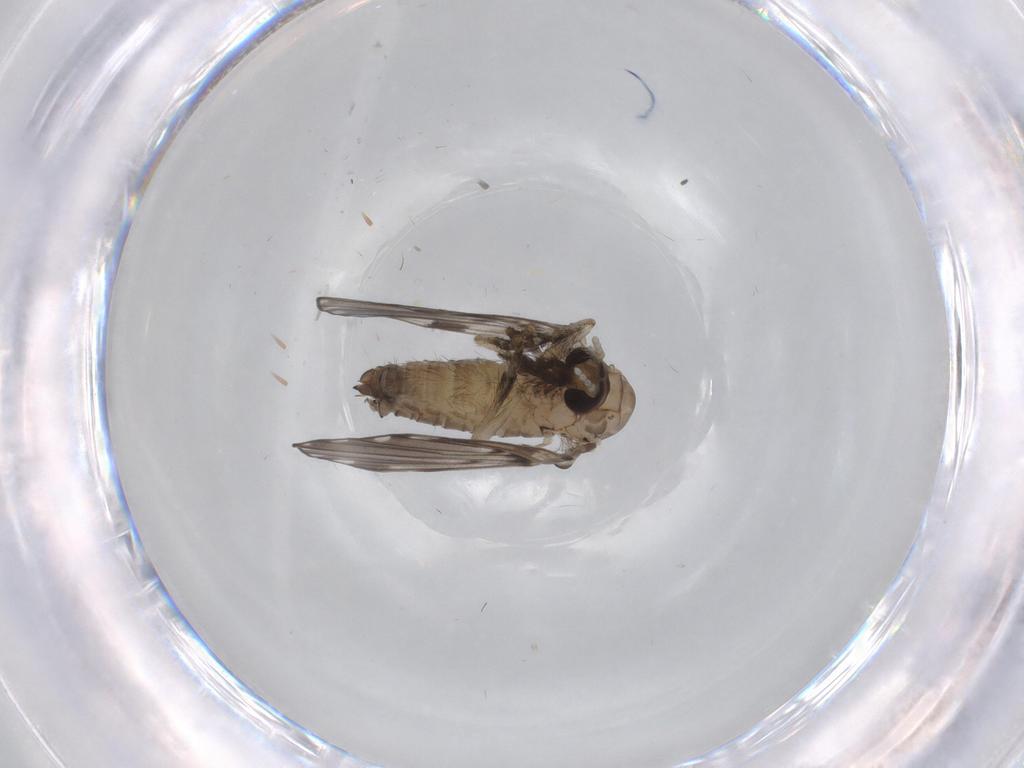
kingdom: Animalia
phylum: Arthropoda
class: Insecta
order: Diptera
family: Psychodidae
